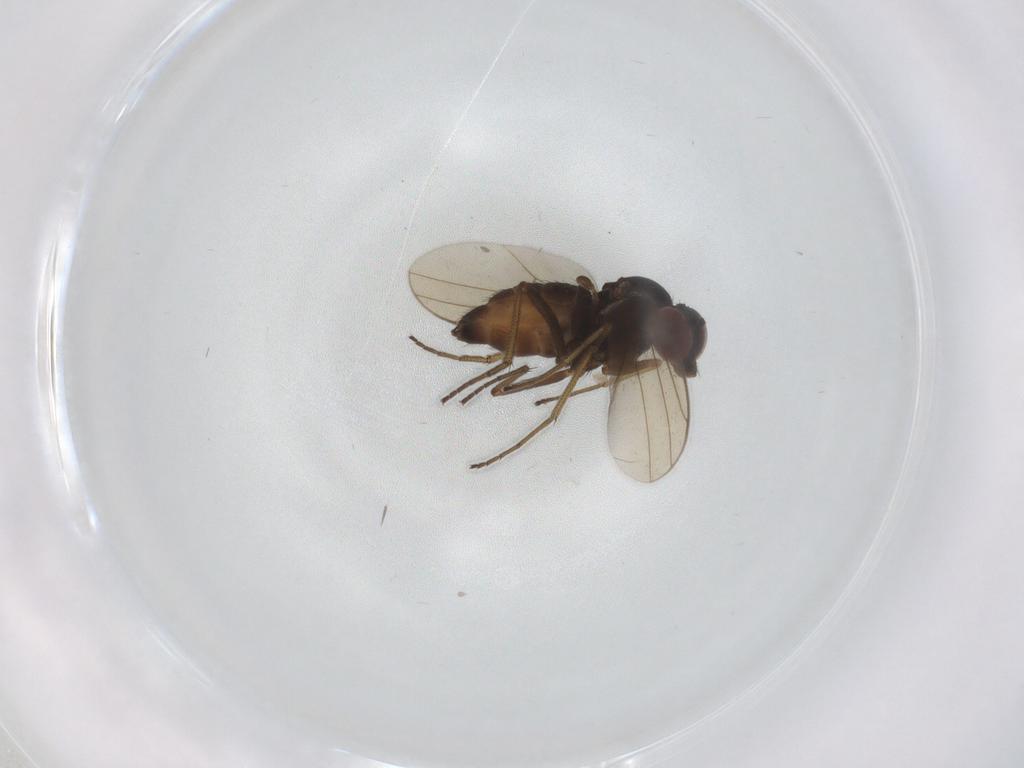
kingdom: Animalia
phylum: Arthropoda
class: Insecta
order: Diptera
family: Dolichopodidae
